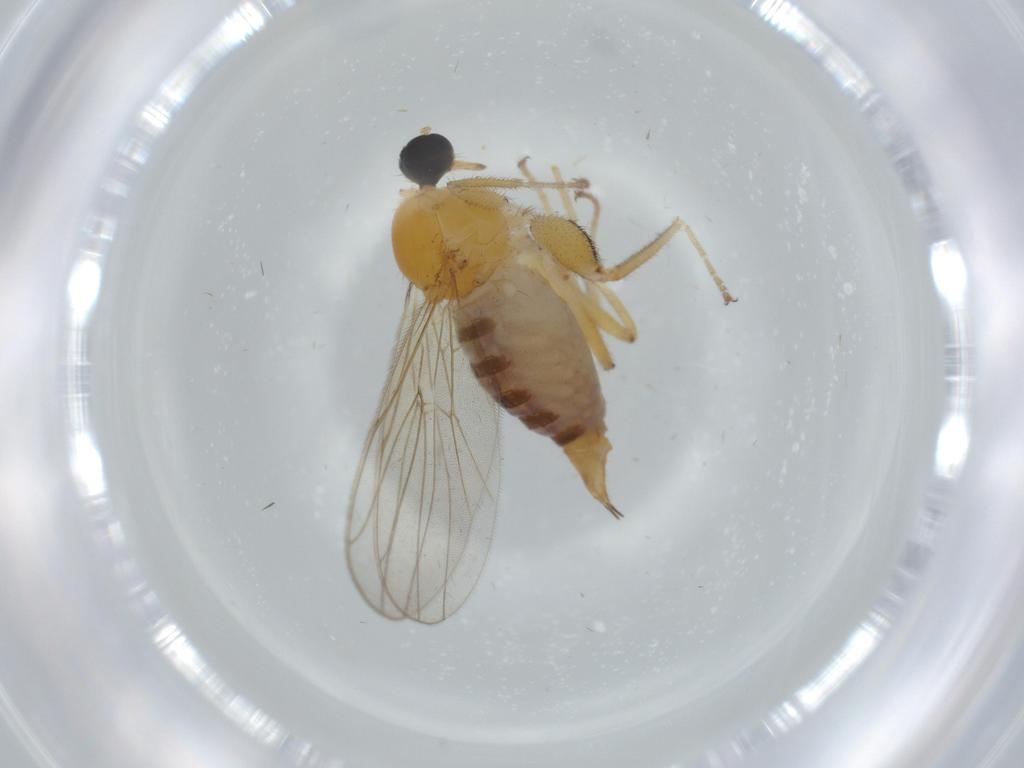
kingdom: Animalia
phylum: Arthropoda
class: Insecta
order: Diptera
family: Hybotidae
